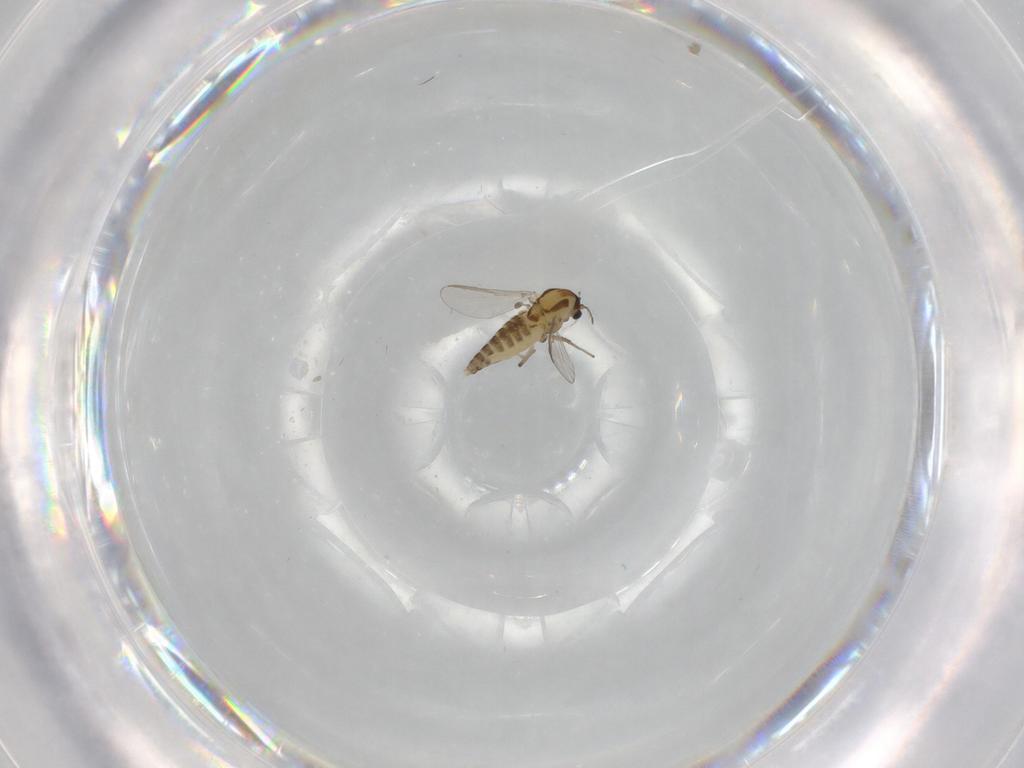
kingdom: Animalia
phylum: Arthropoda
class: Insecta
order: Diptera
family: Chironomidae
